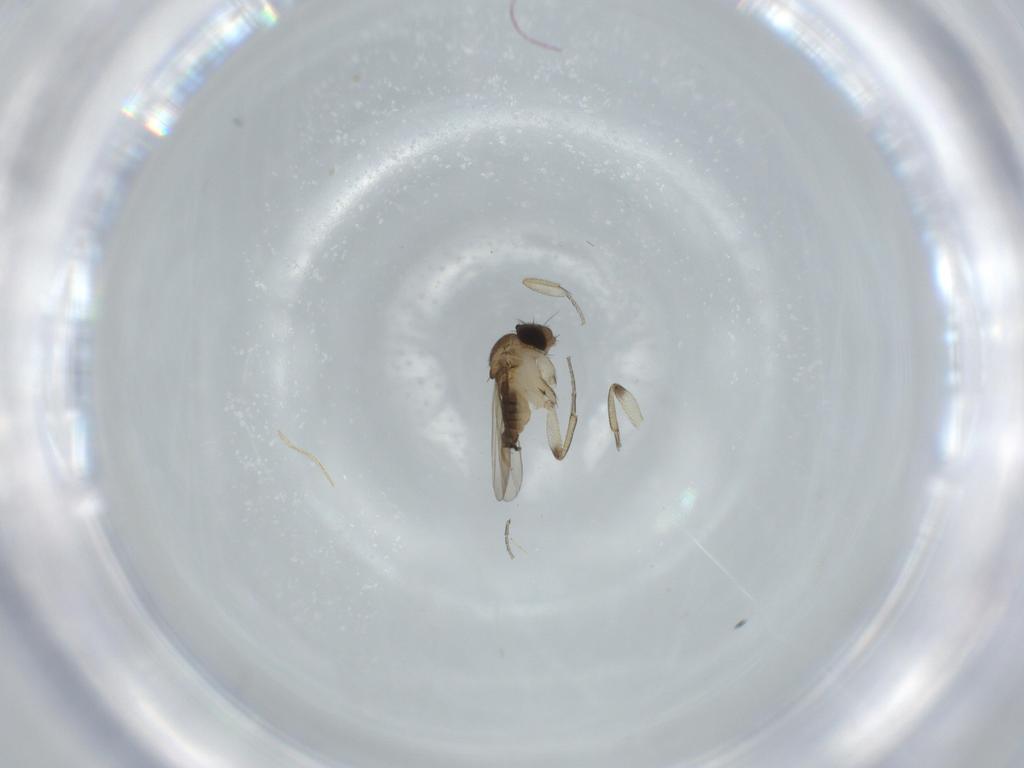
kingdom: Animalia
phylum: Arthropoda
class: Insecta
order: Diptera
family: Phoridae
